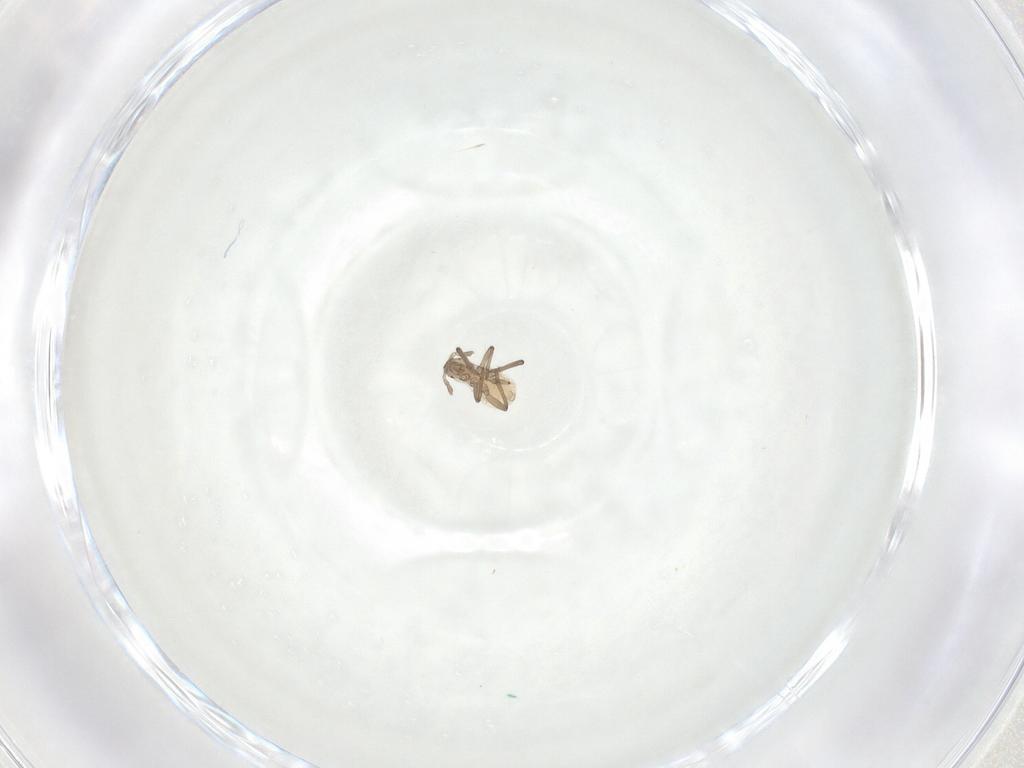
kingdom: Animalia
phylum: Arthropoda
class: Insecta
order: Hemiptera
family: Aphididae
